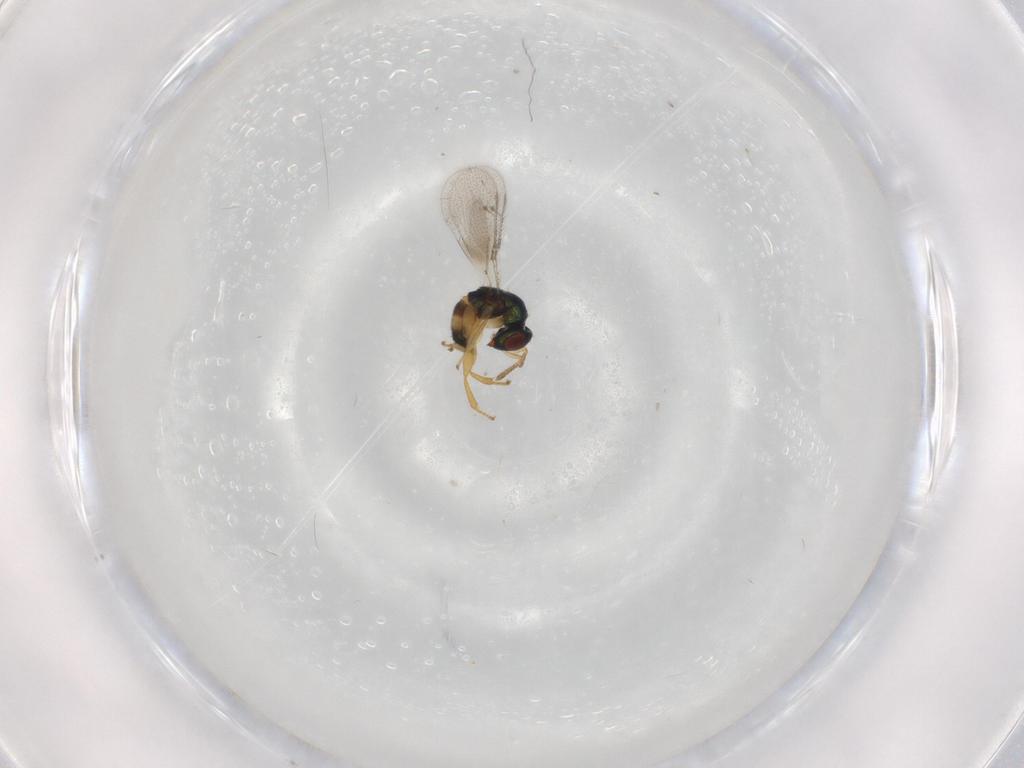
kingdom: Animalia
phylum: Arthropoda
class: Insecta
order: Hymenoptera
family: Torymidae
